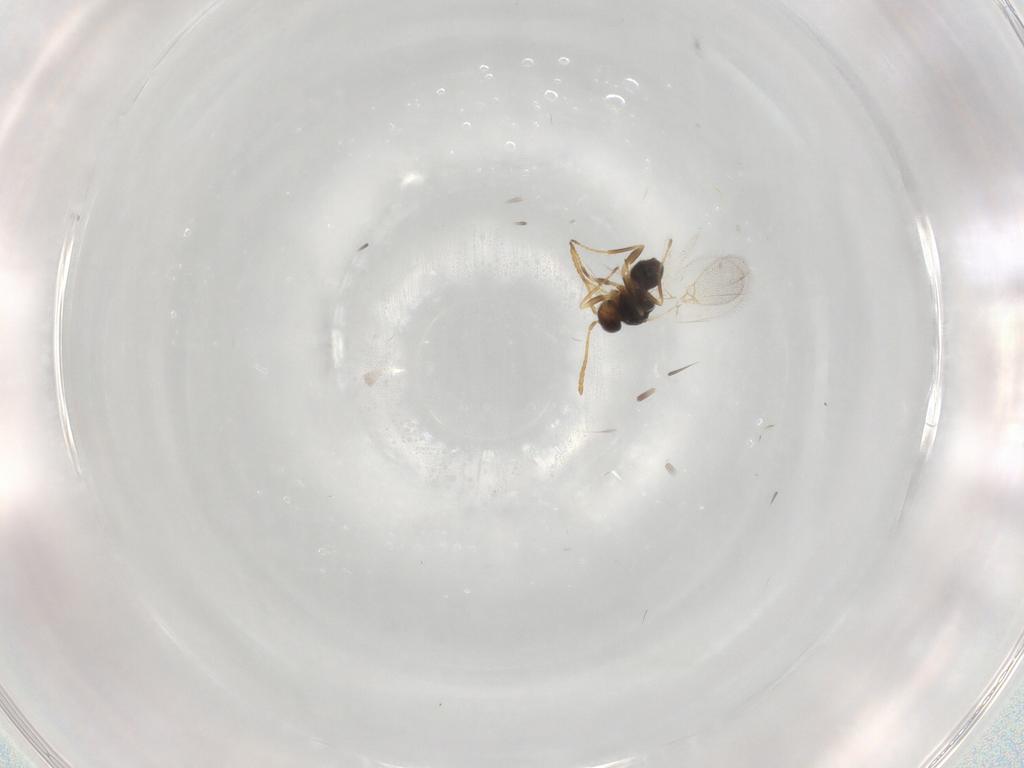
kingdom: Animalia
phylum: Arthropoda
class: Insecta
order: Hymenoptera
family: Figitidae
